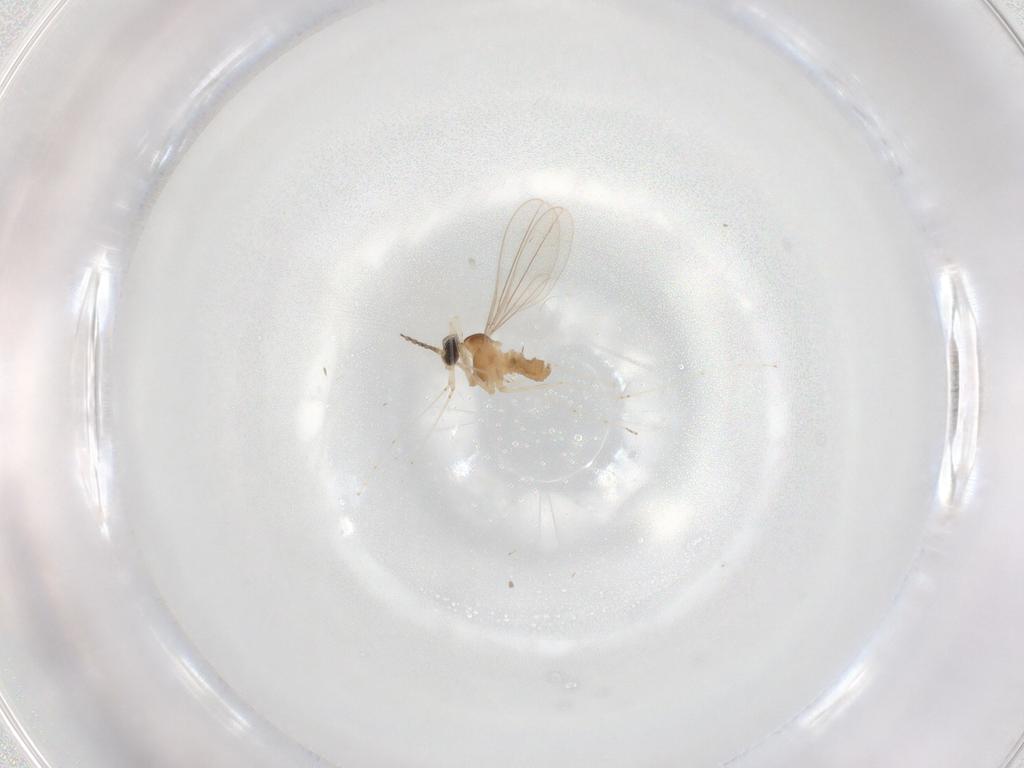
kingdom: Animalia
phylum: Arthropoda
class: Insecta
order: Diptera
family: Cecidomyiidae
